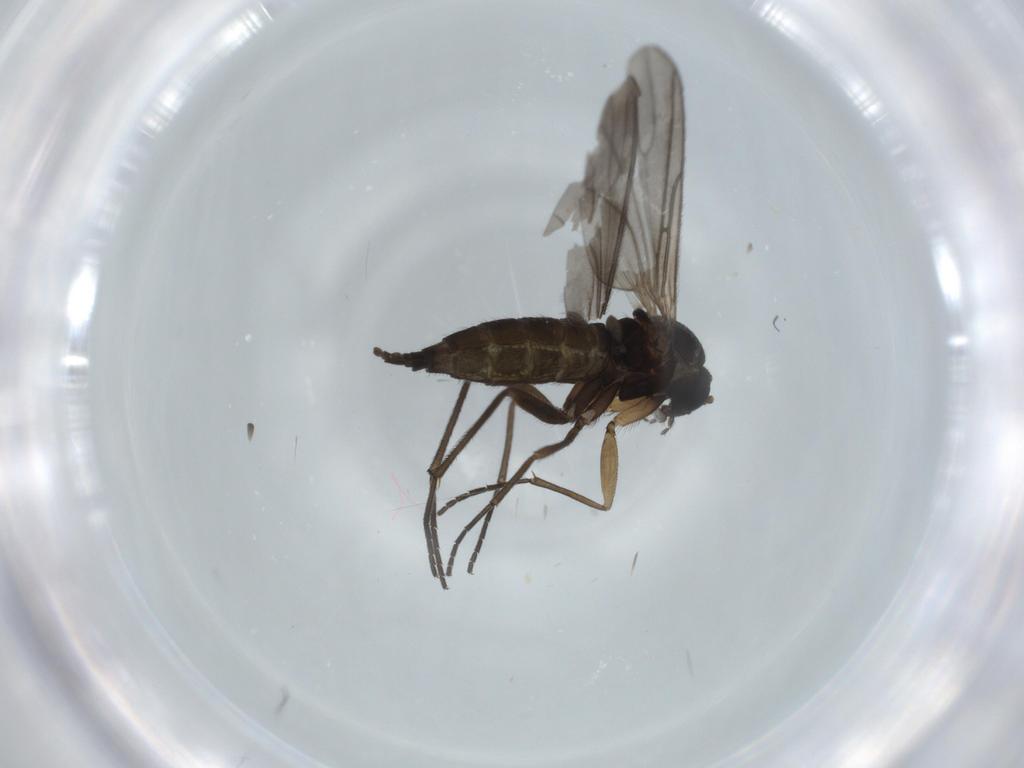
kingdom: Animalia
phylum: Arthropoda
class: Insecta
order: Diptera
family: Sciaridae
